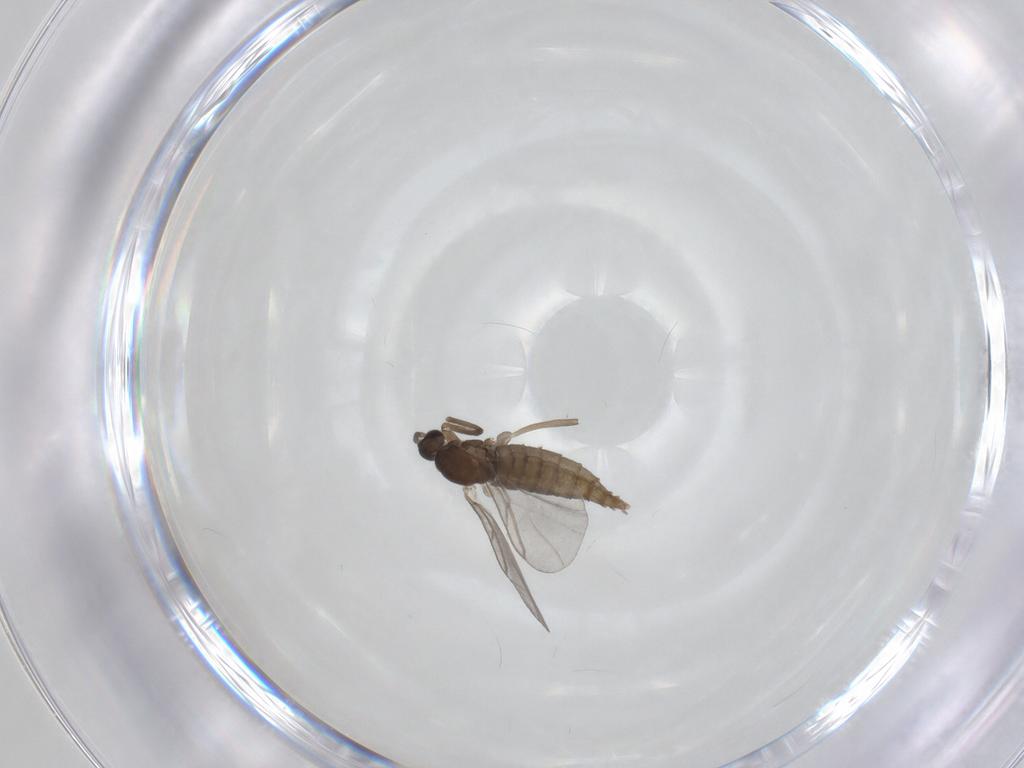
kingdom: Animalia
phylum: Arthropoda
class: Insecta
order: Diptera
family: Cecidomyiidae
